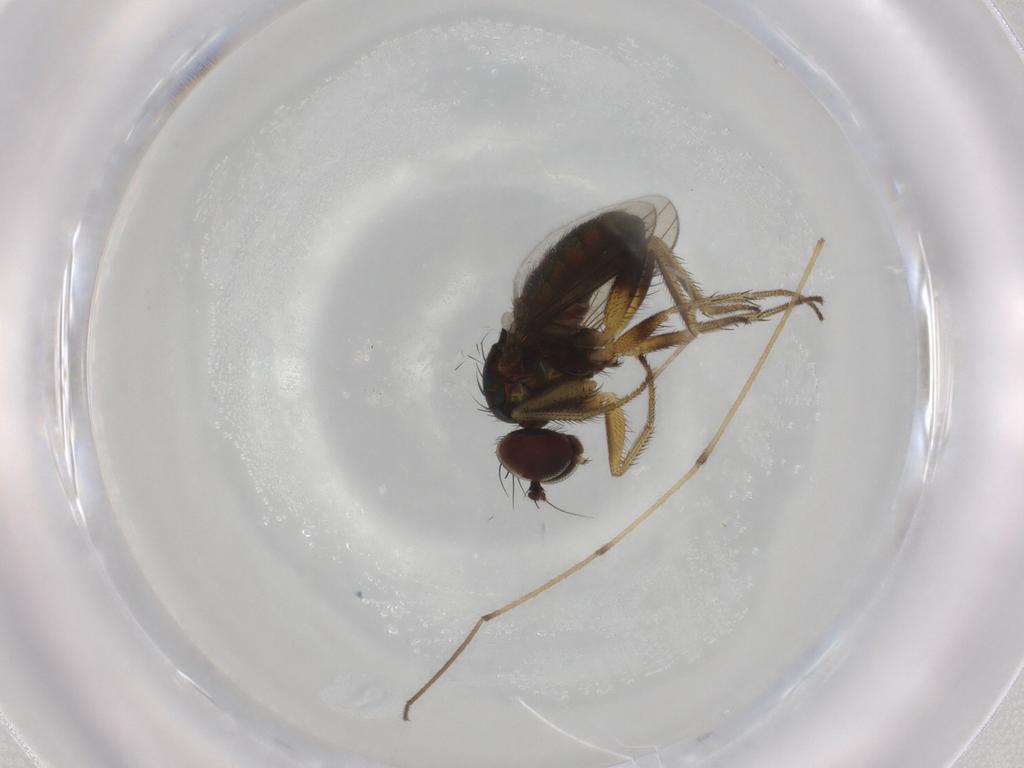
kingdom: Animalia
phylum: Arthropoda
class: Insecta
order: Diptera
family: Dolichopodidae
